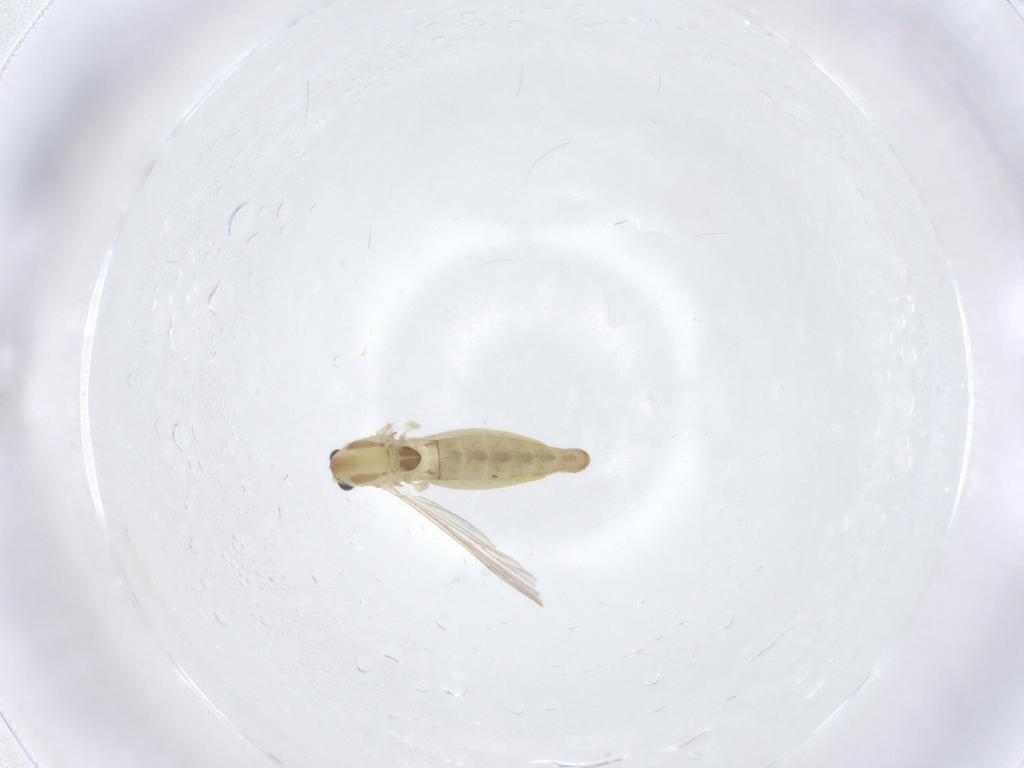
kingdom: Animalia
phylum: Arthropoda
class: Insecta
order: Diptera
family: Chironomidae
